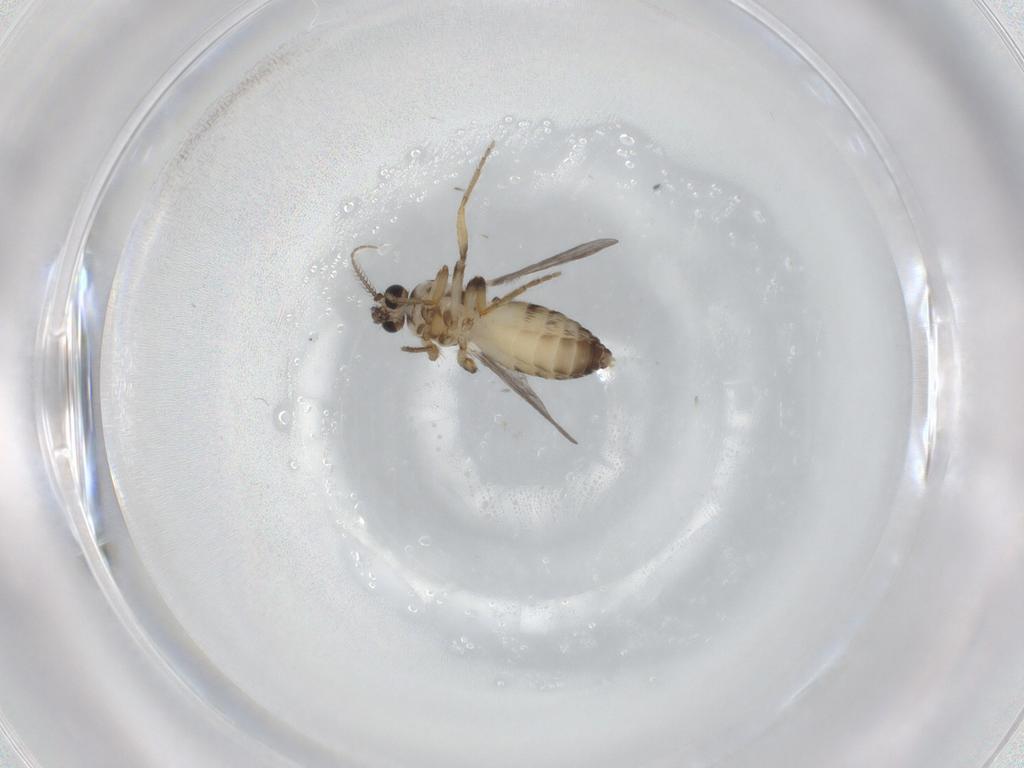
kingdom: Animalia
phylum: Arthropoda
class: Insecta
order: Diptera
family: Ceratopogonidae
